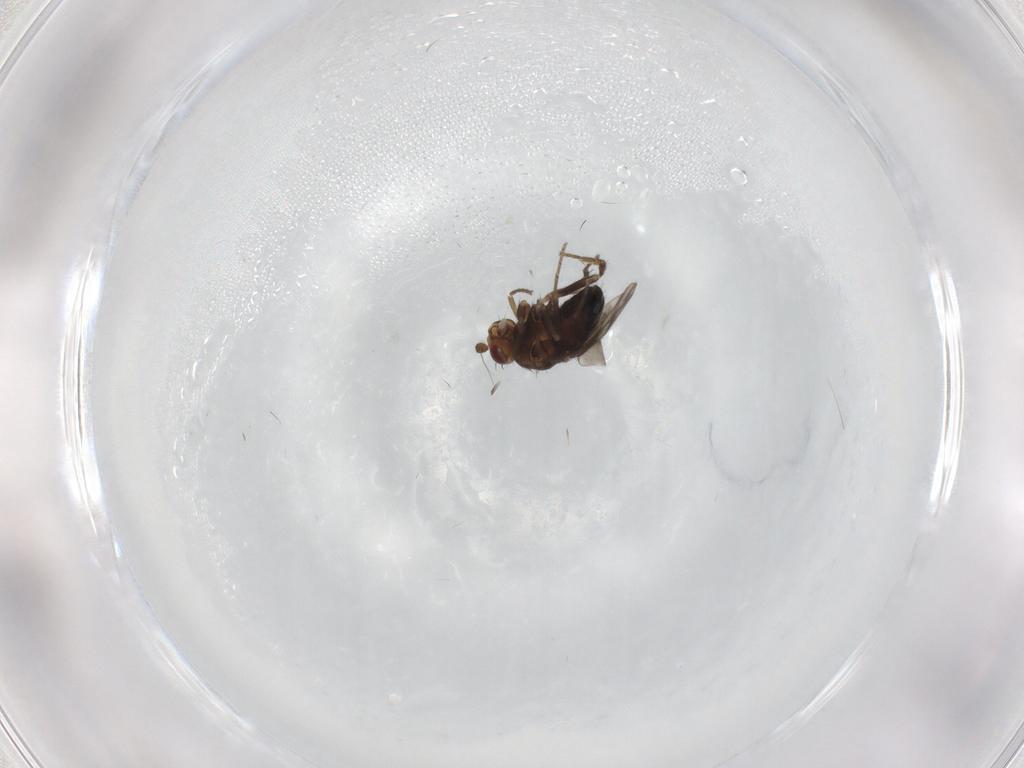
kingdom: Animalia
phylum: Arthropoda
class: Insecta
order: Diptera
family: Sphaeroceridae
